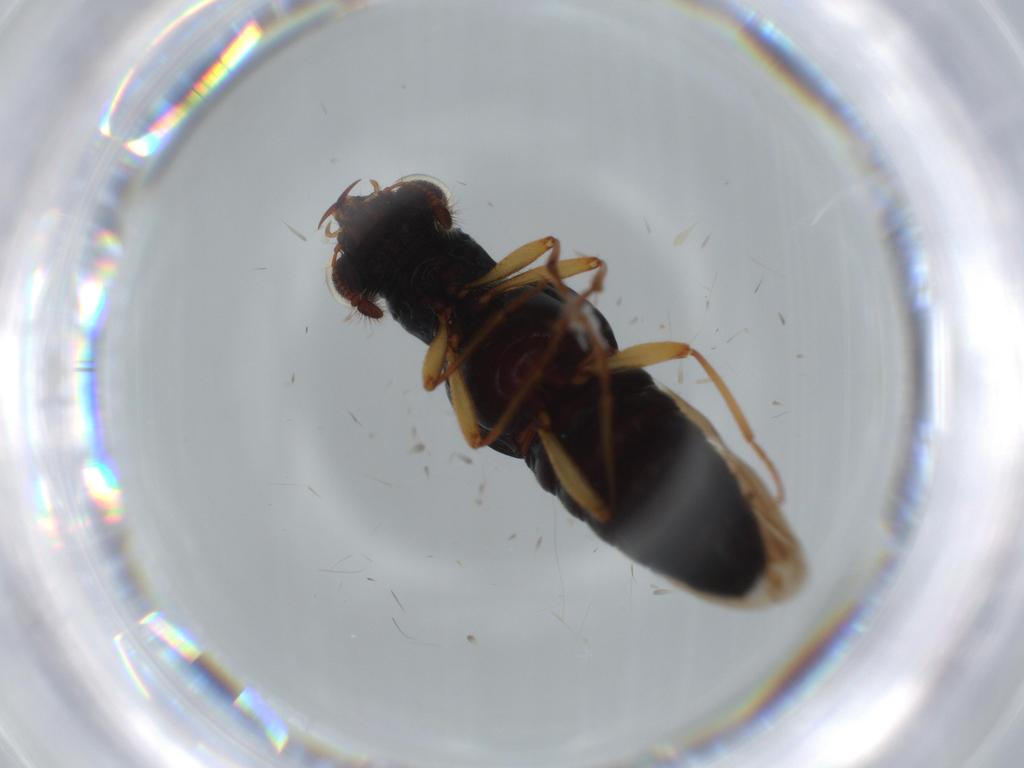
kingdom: Animalia
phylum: Arthropoda
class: Insecta
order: Coleoptera
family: Staphylinidae
